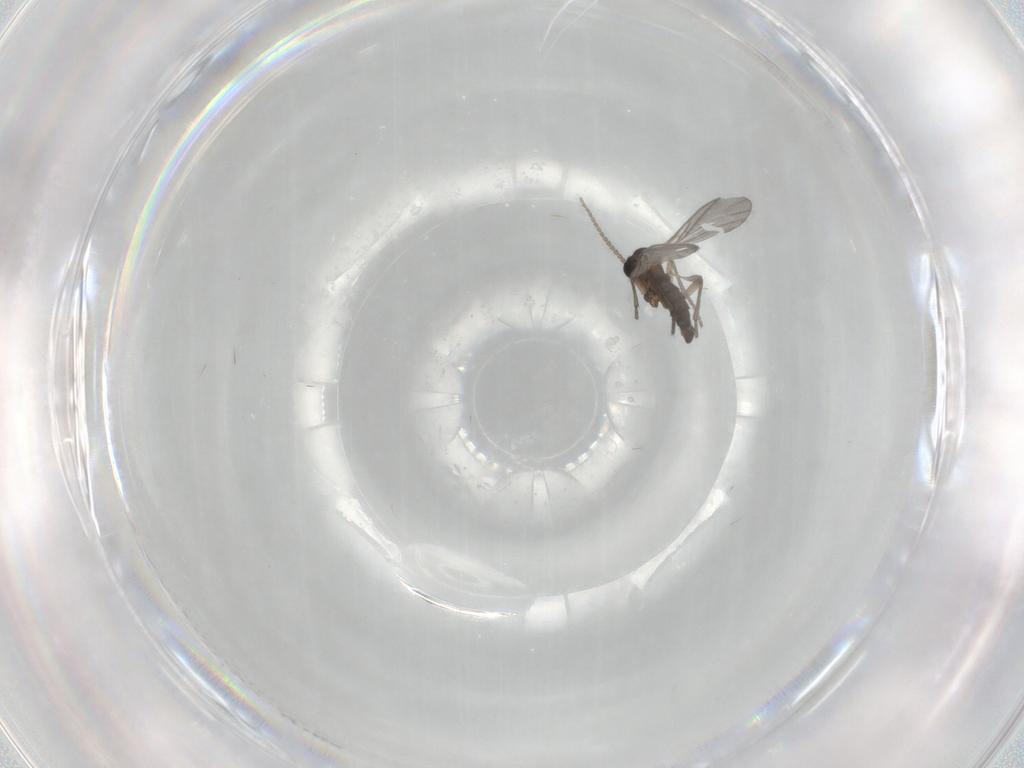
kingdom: Animalia
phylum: Arthropoda
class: Insecta
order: Diptera
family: Sciaridae
